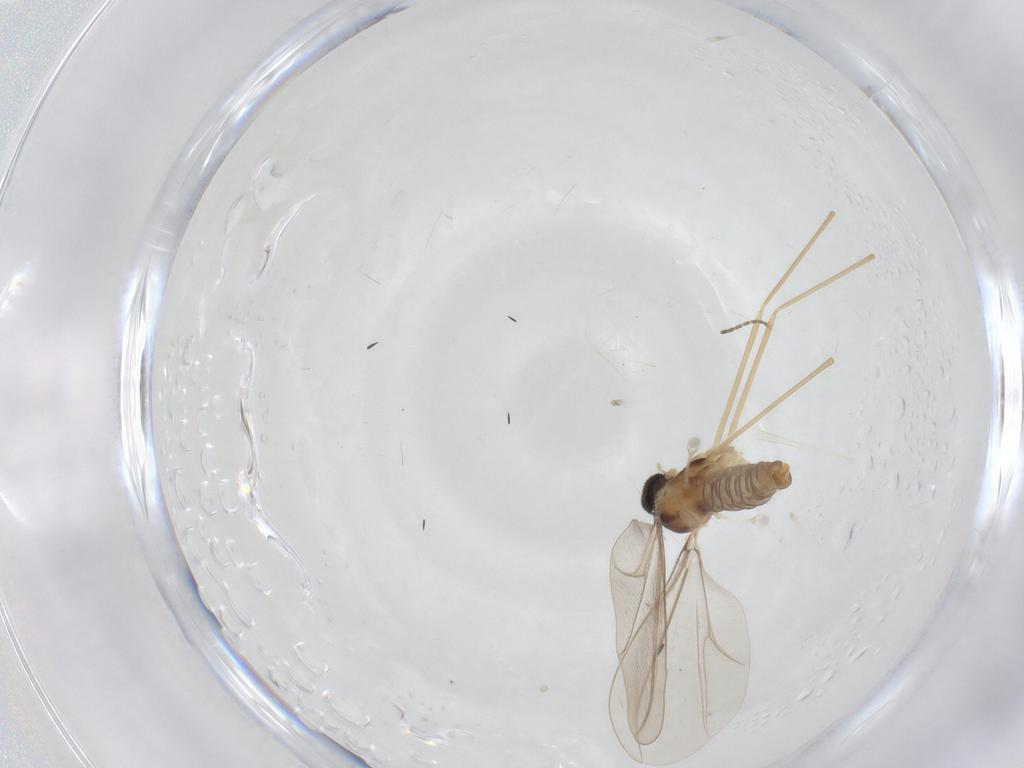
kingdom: Animalia
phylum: Arthropoda
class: Insecta
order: Diptera
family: Sciaridae
